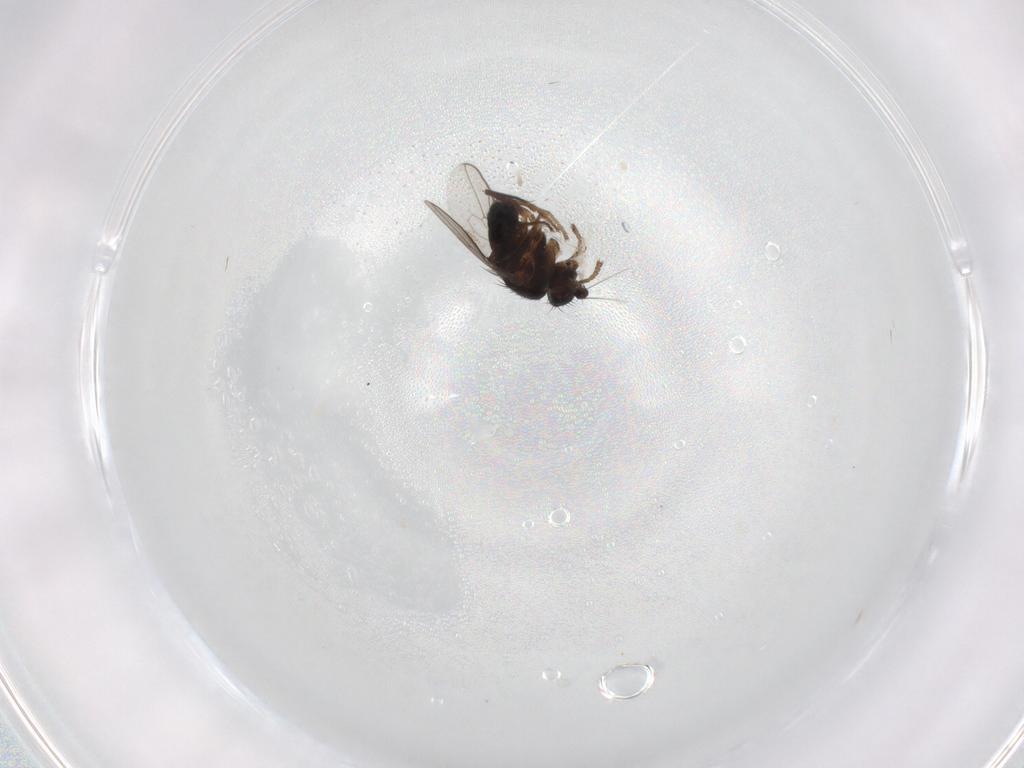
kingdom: Animalia
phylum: Arthropoda
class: Insecta
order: Diptera
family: Sphaeroceridae
